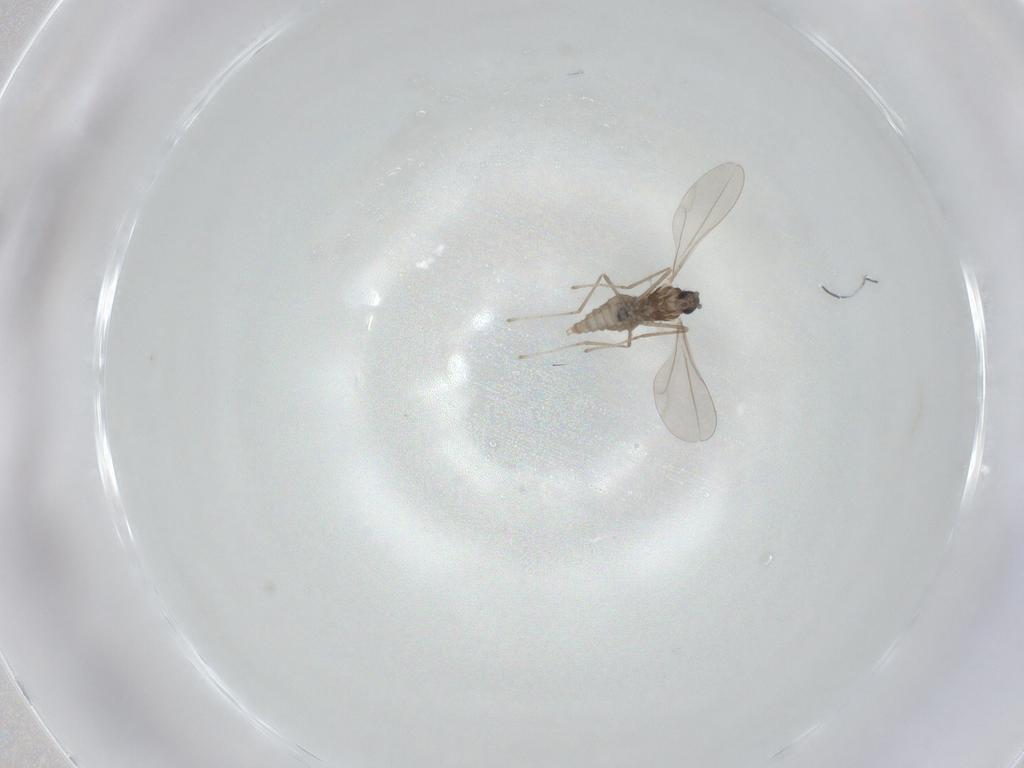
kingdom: Animalia
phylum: Arthropoda
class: Insecta
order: Diptera
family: Cecidomyiidae
